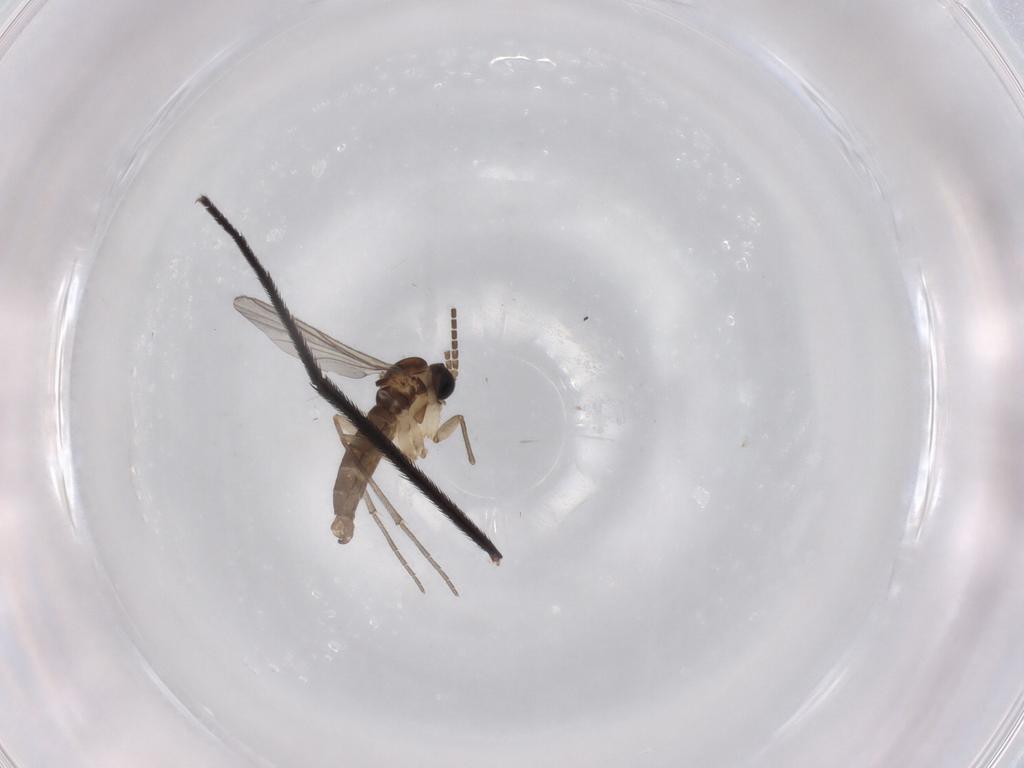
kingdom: Animalia
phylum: Arthropoda
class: Insecta
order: Diptera
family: Dolichopodidae
